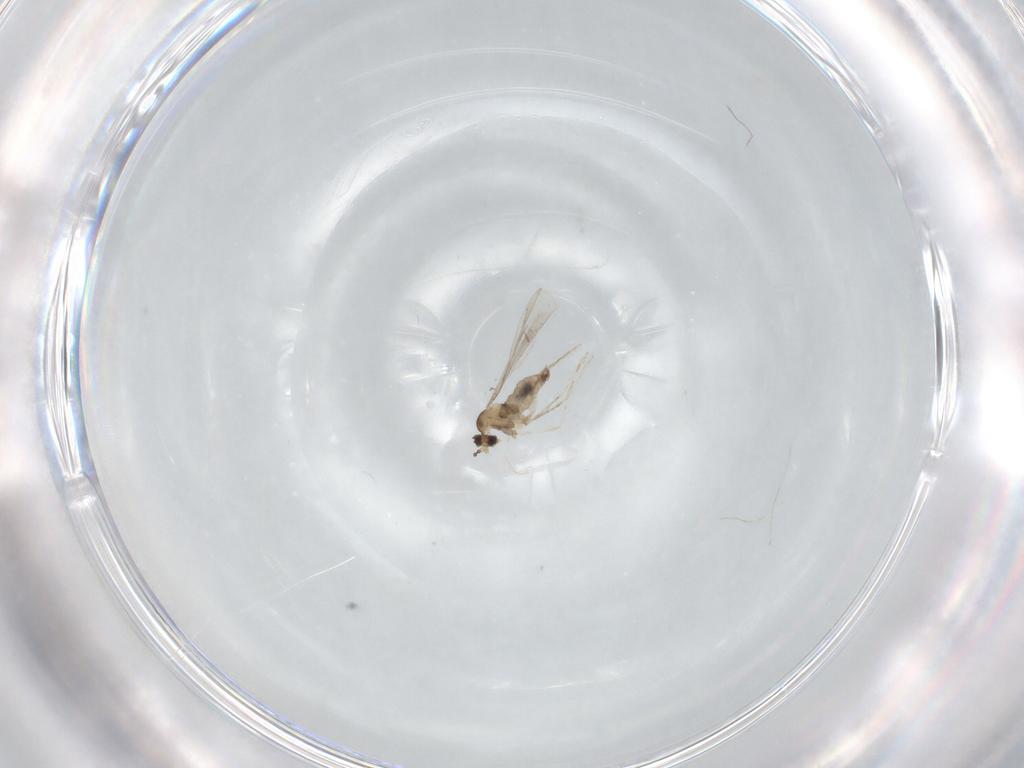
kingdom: Animalia
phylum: Arthropoda
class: Insecta
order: Diptera
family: Cecidomyiidae
